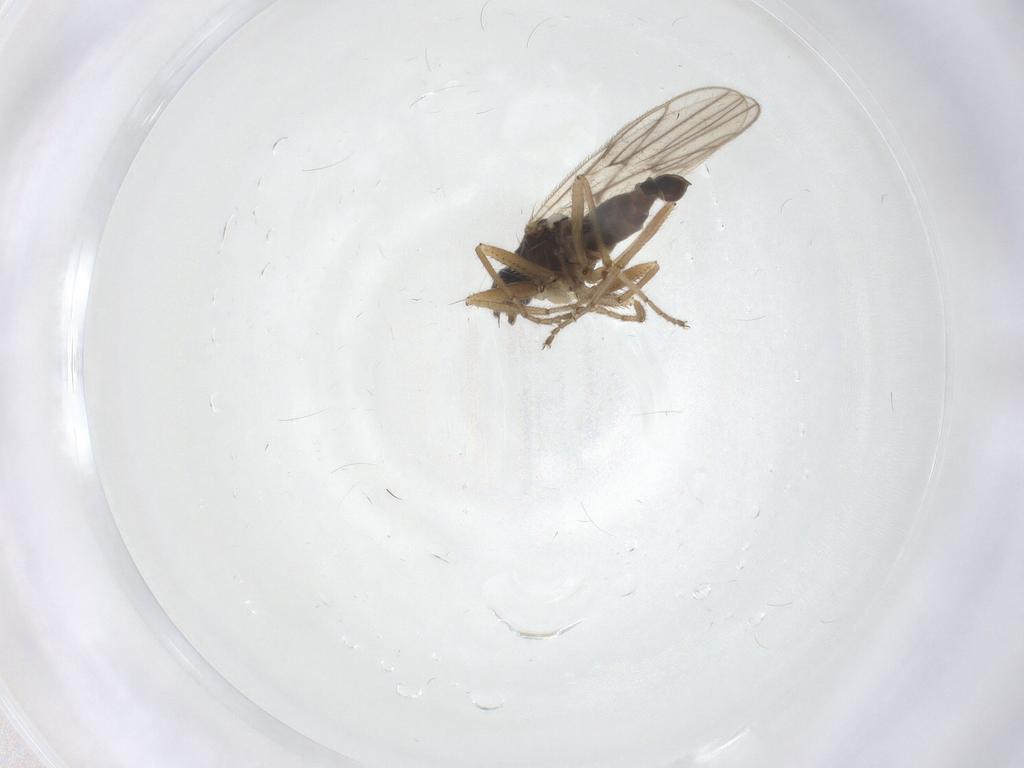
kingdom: Animalia
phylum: Arthropoda
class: Insecta
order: Diptera
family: Hybotidae
